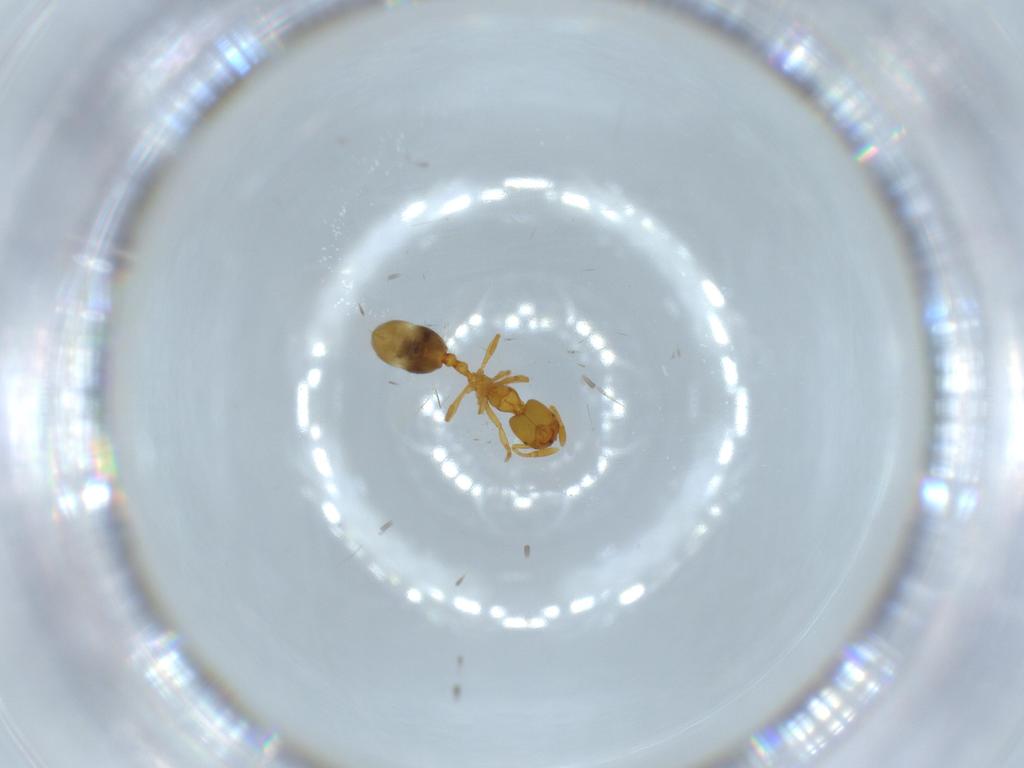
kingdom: Animalia
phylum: Arthropoda
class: Insecta
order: Hymenoptera
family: Formicidae
